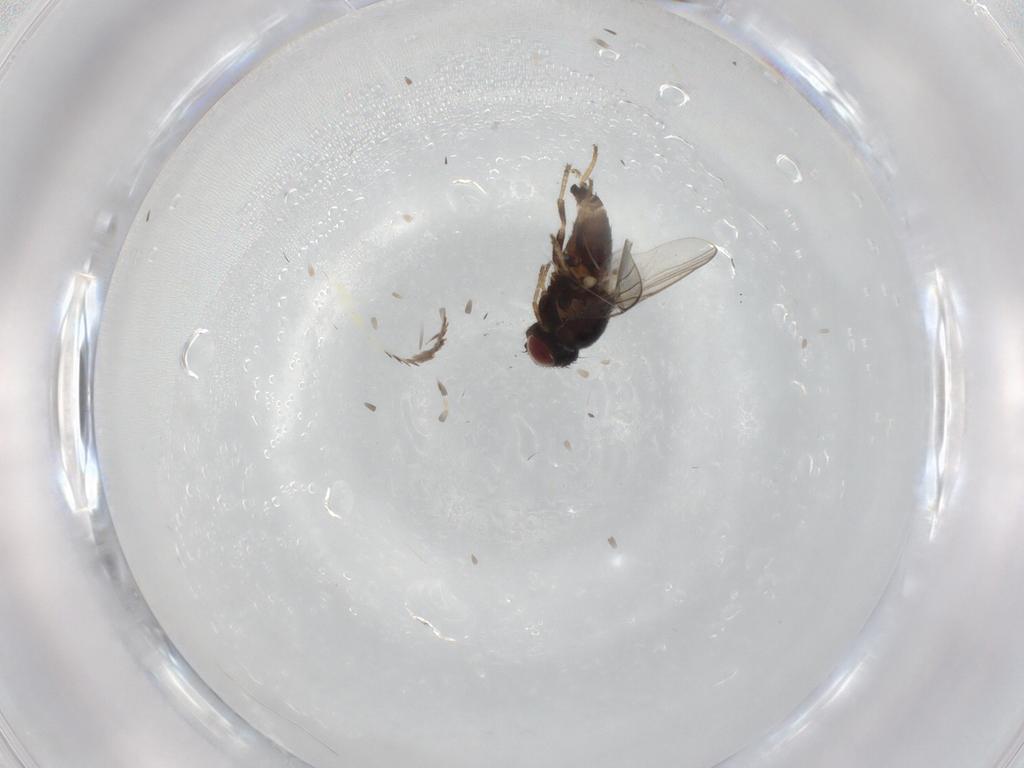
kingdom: Animalia
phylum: Arthropoda
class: Insecta
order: Diptera
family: Chloropidae
